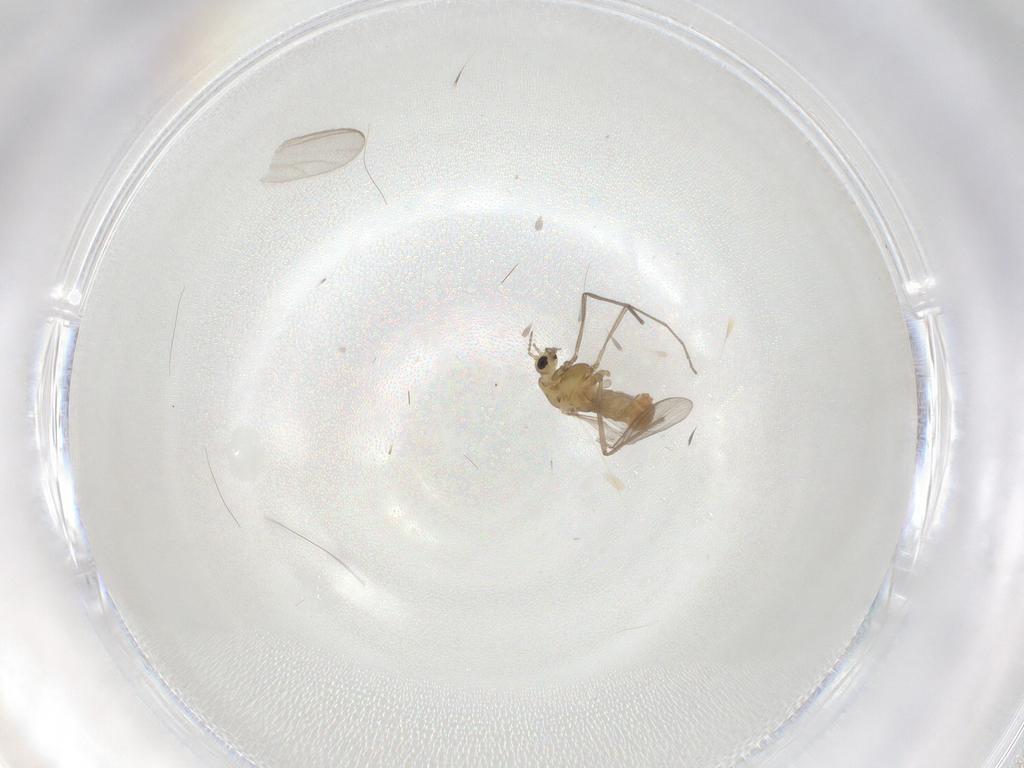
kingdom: Animalia
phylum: Arthropoda
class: Insecta
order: Diptera
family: Chironomidae
